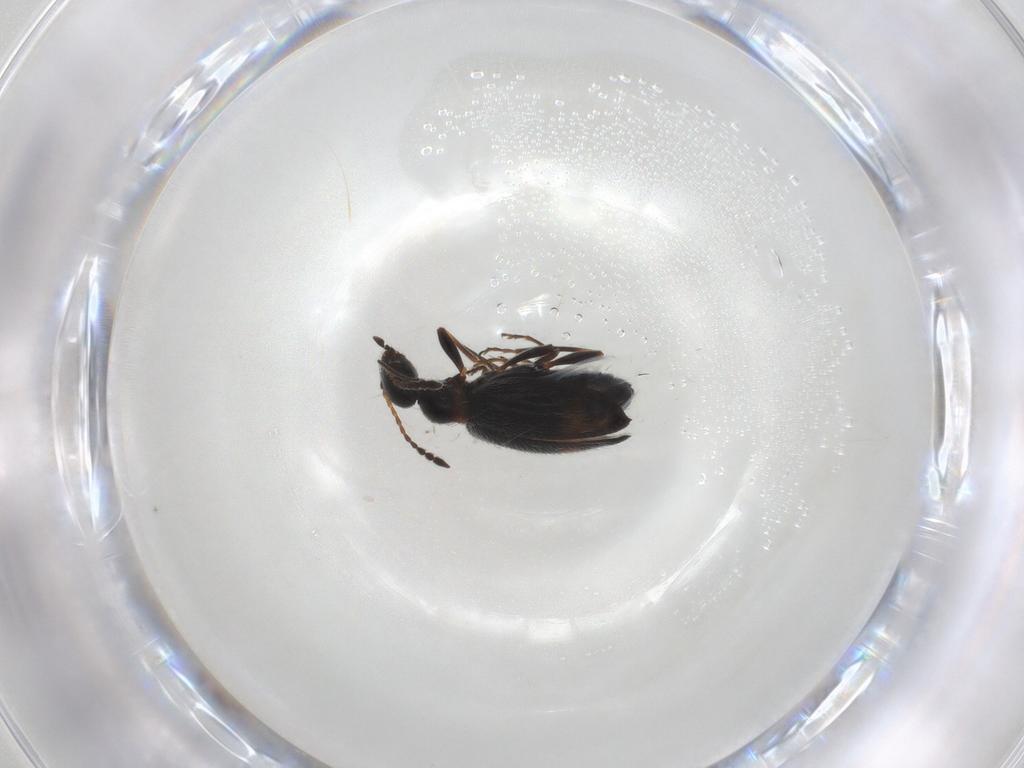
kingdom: Animalia
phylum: Arthropoda
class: Insecta
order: Coleoptera
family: Anthicidae
